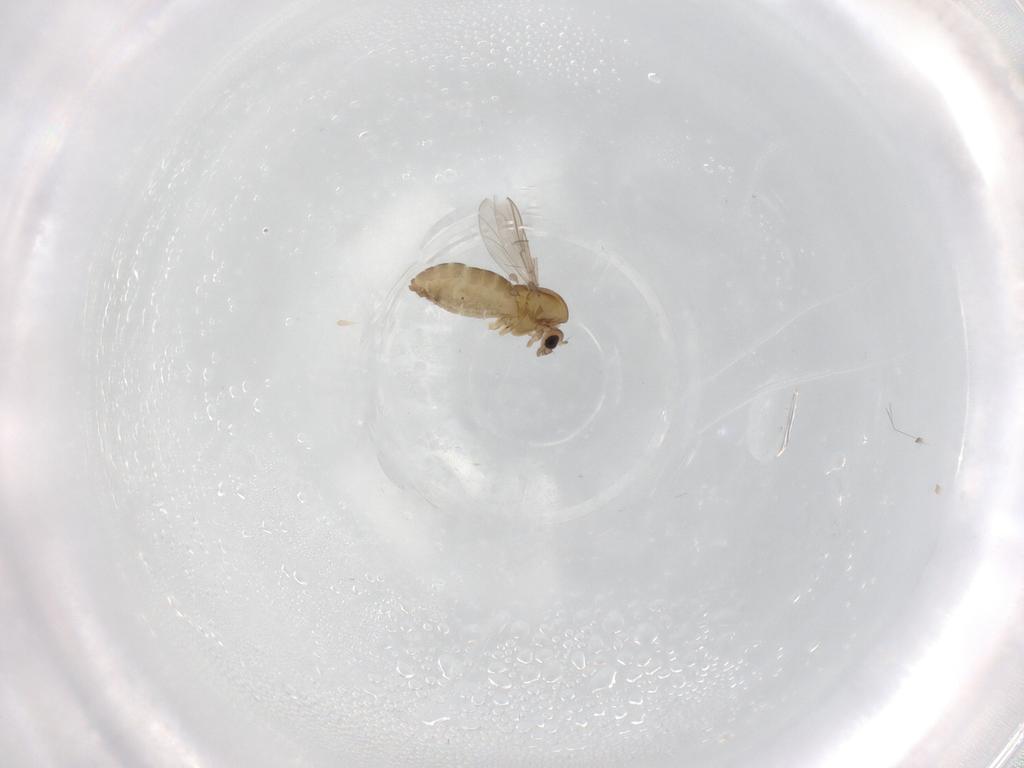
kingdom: Animalia
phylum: Arthropoda
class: Insecta
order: Diptera
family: Chironomidae
